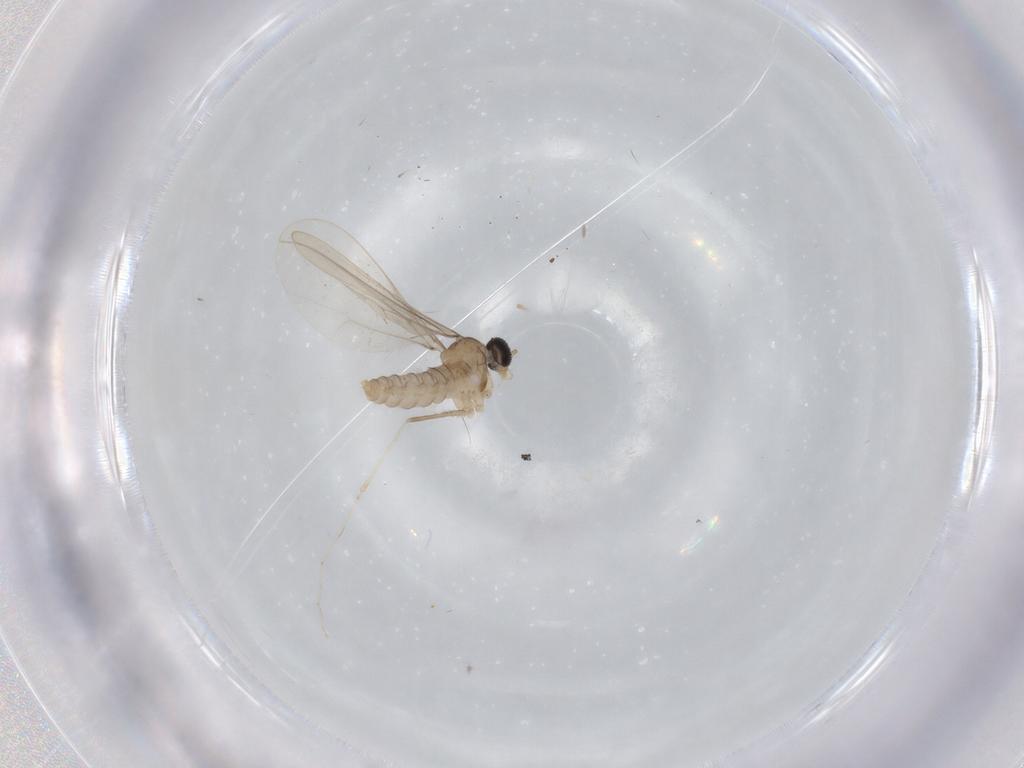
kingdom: Animalia
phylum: Arthropoda
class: Insecta
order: Diptera
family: Cecidomyiidae
